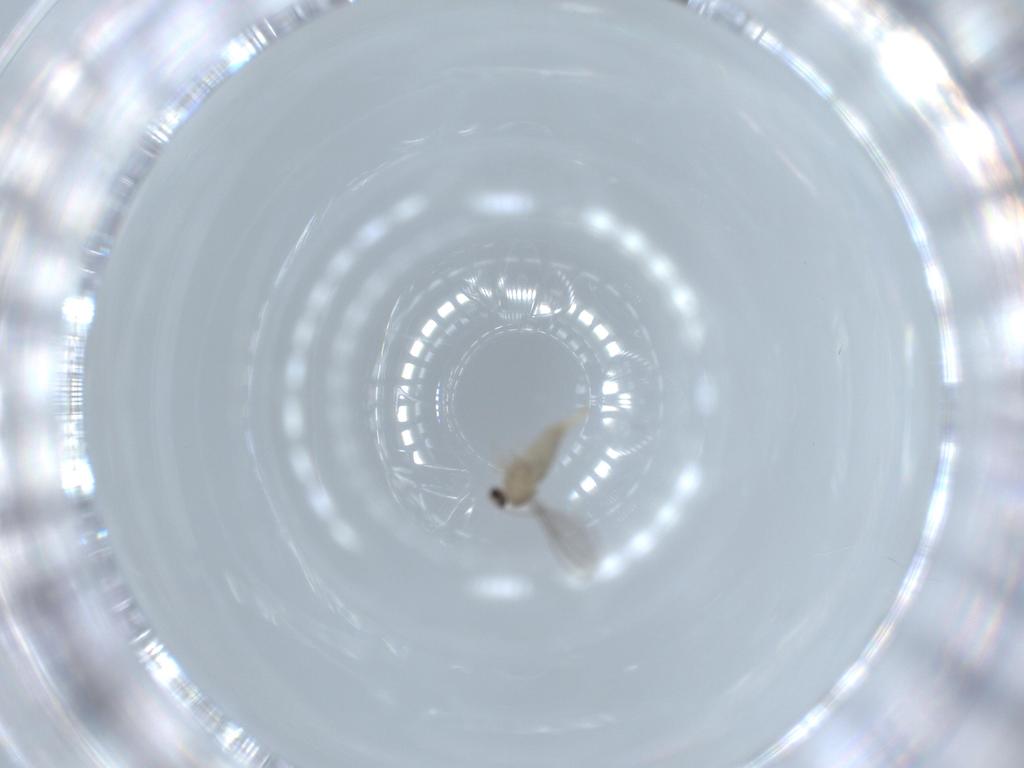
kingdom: Animalia
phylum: Arthropoda
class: Insecta
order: Diptera
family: Cecidomyiidae
